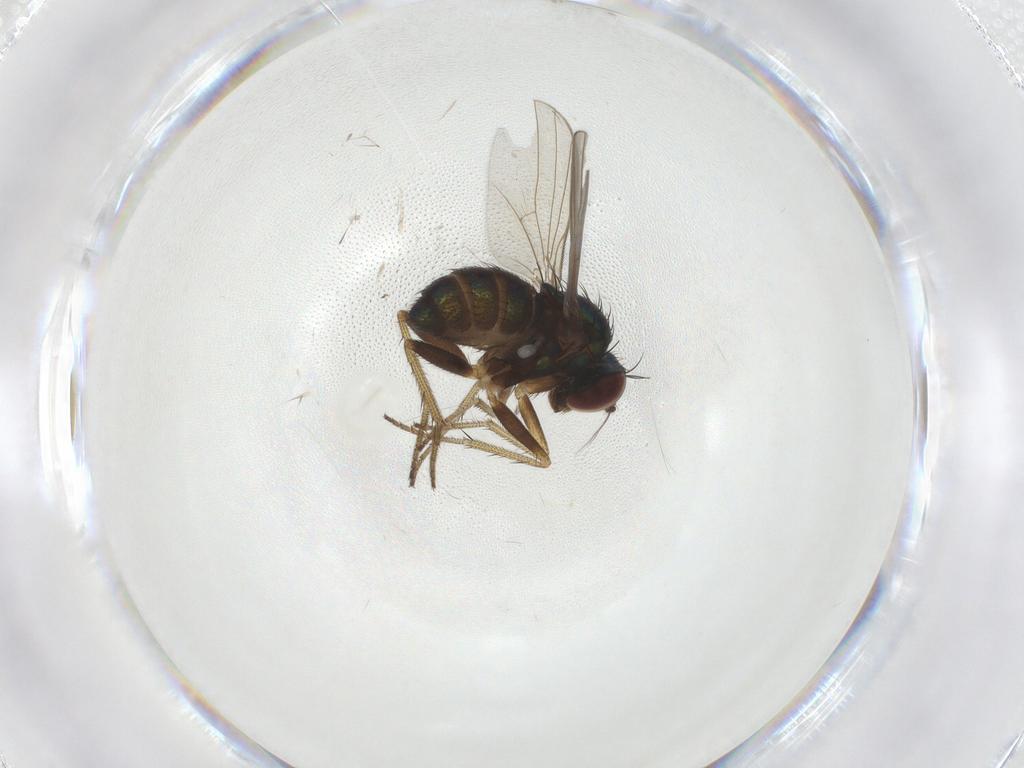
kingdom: Animalia
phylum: Arthropoda
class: Insecta
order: Diptera
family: Dolichopodidae
